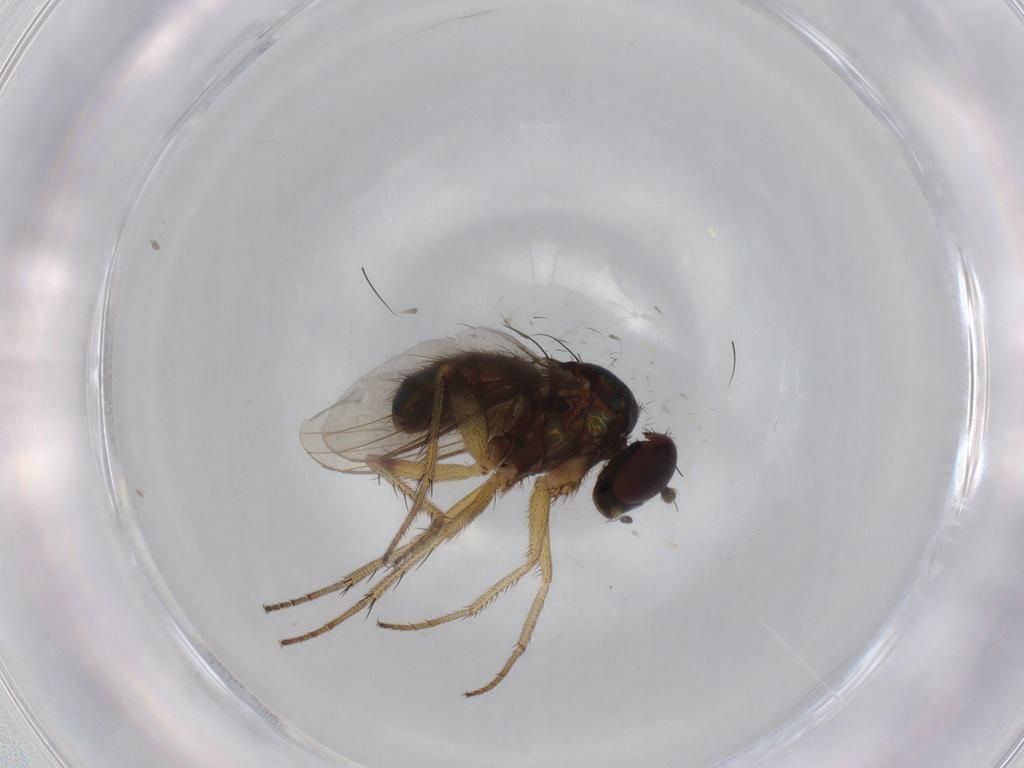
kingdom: Animalia
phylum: Arthropoda
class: Insecta
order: Diptera
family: Dolichopodidae
